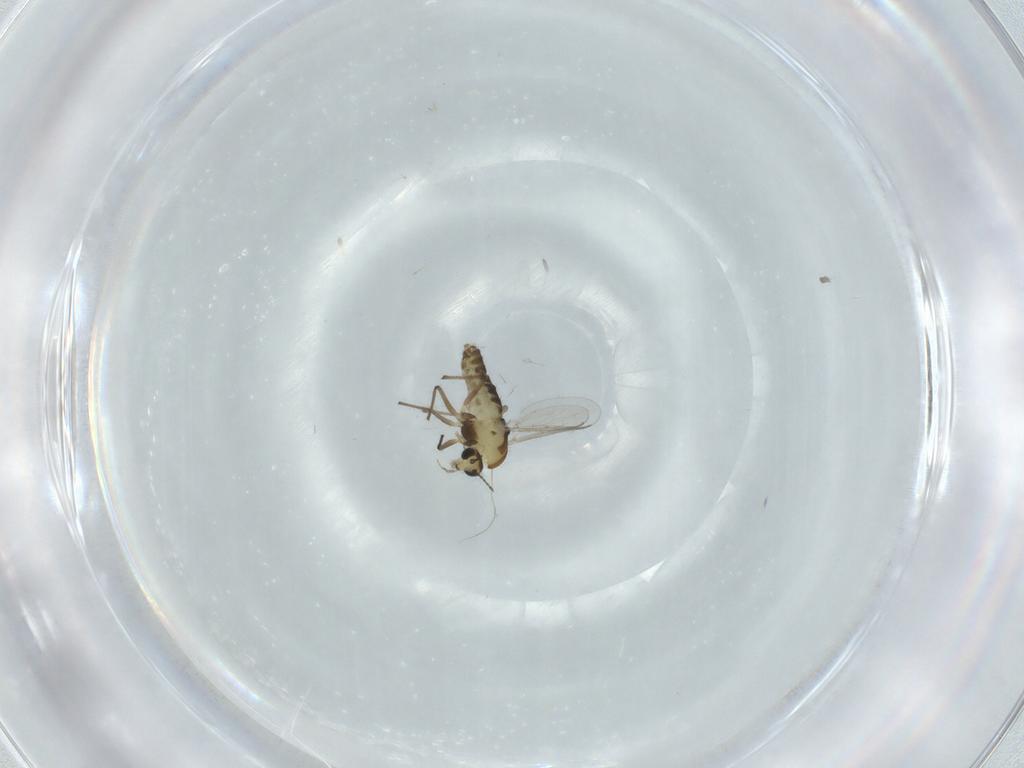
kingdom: Animalia
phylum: Arthropoda
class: Insecta
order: Diptera
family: Chironomidae
